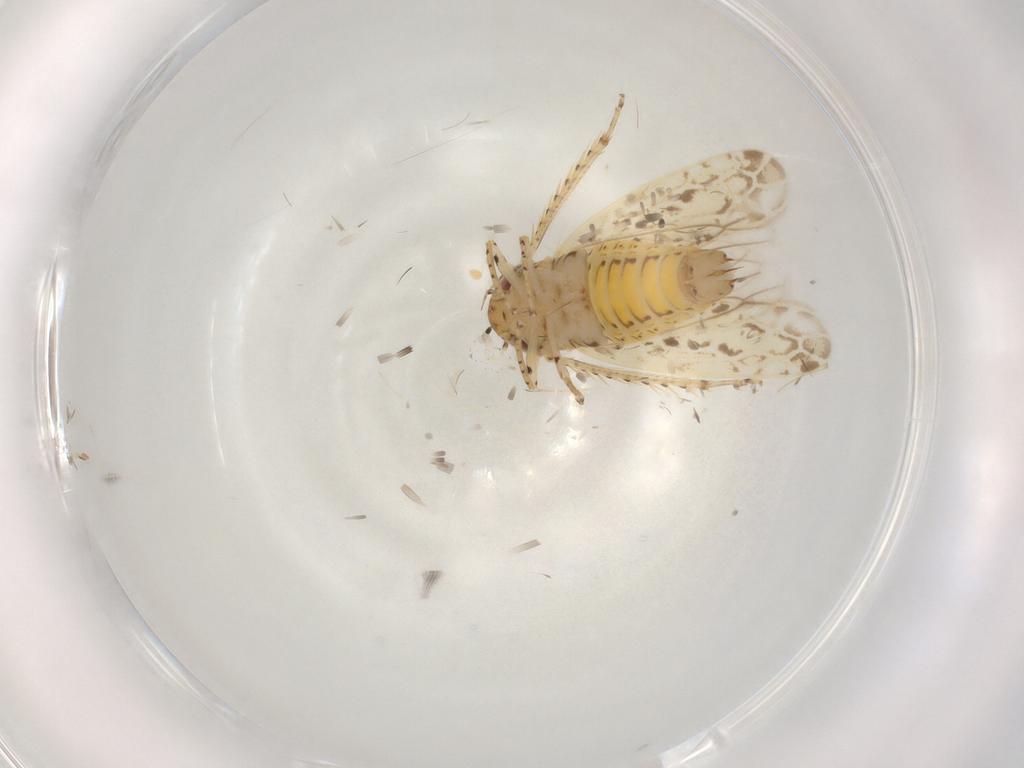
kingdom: Animalia
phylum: Arthropoda
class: Insecta
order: Hemiptera
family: Cicadellidae
